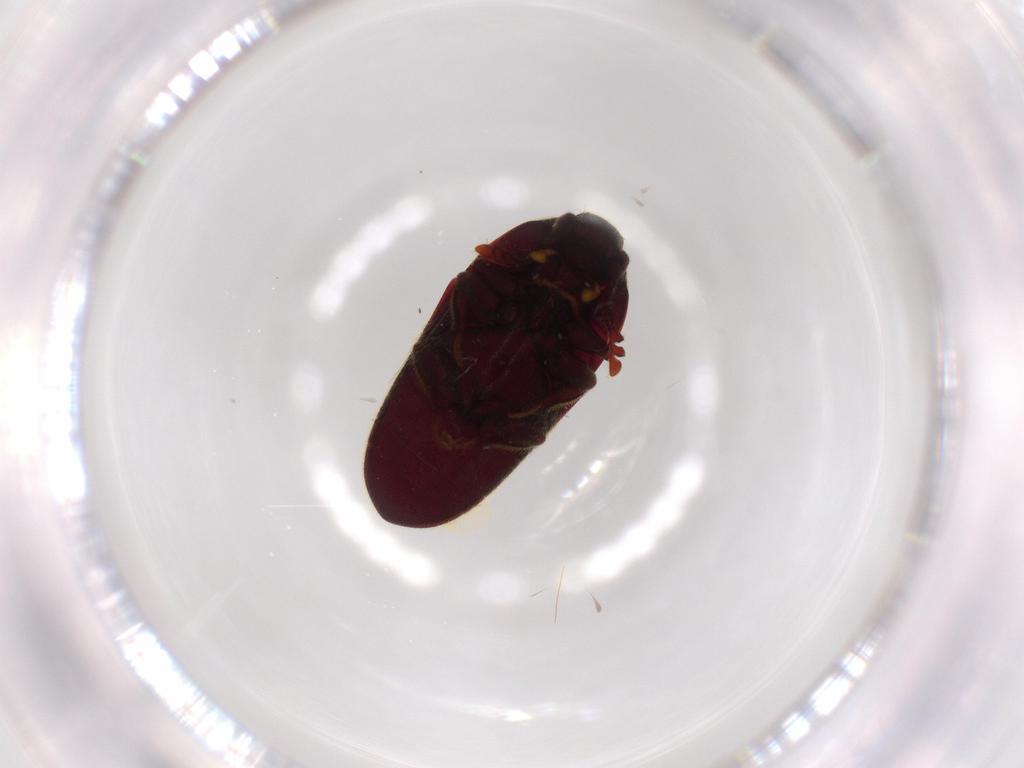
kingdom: Animalia
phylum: Arthropoda
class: Insecta
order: Coleoptera
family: Throscidae
